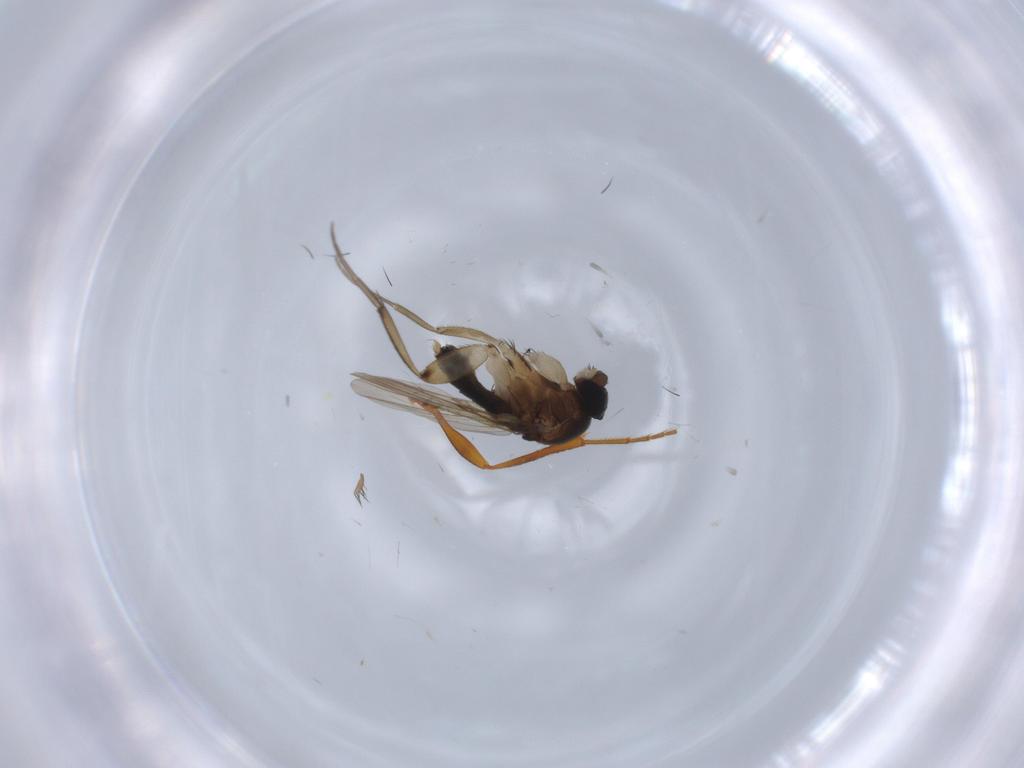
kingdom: Animalia
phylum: Arthropoda
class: Insecta
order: Diptera
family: Phoridae
